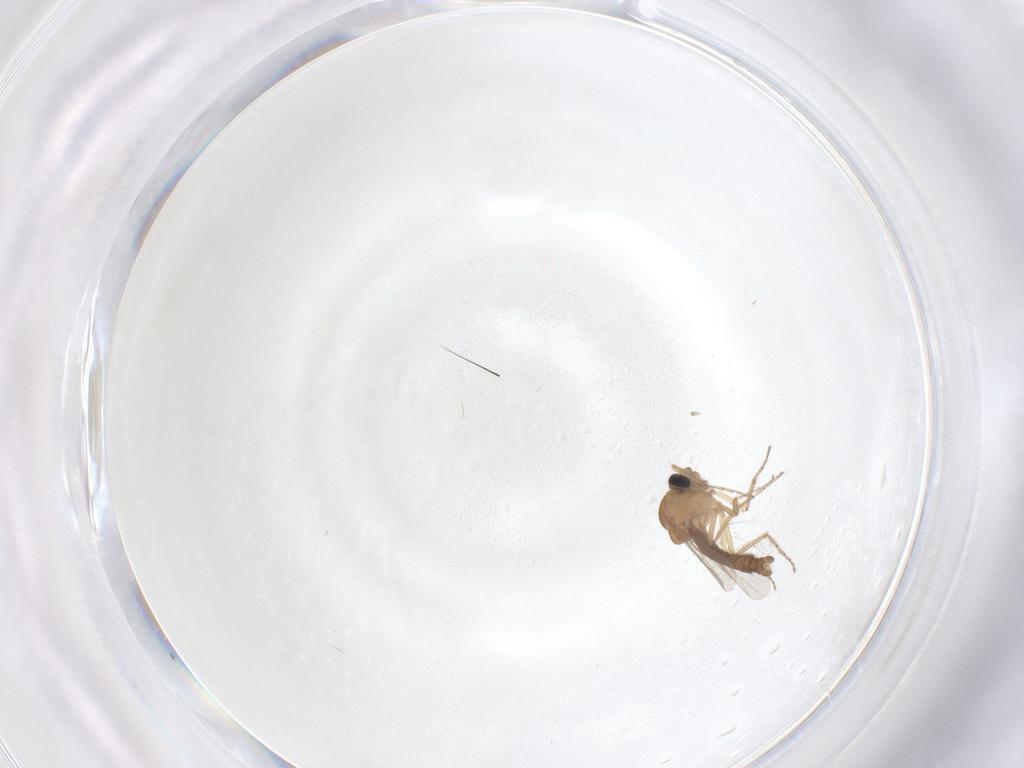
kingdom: Animalia
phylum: Arthropoda
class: Insecta
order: Diptera
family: Ceratopogonidae
